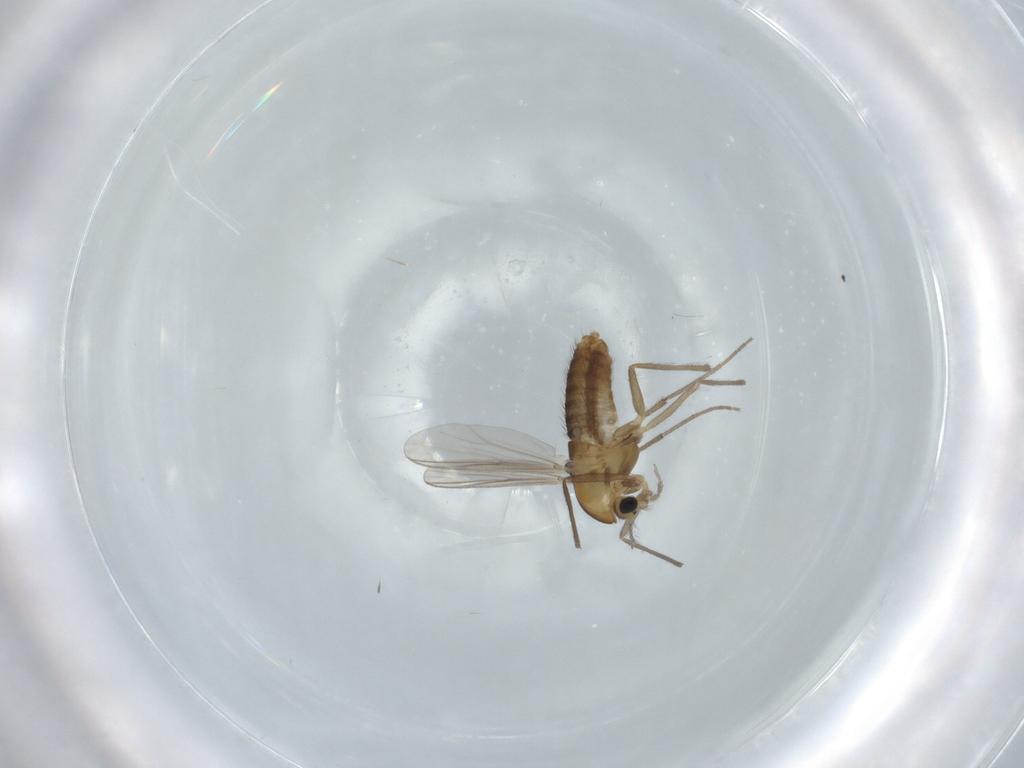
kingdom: Animalia
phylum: Arthropoda
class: Insecta
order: Diptera
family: Chironomidae
